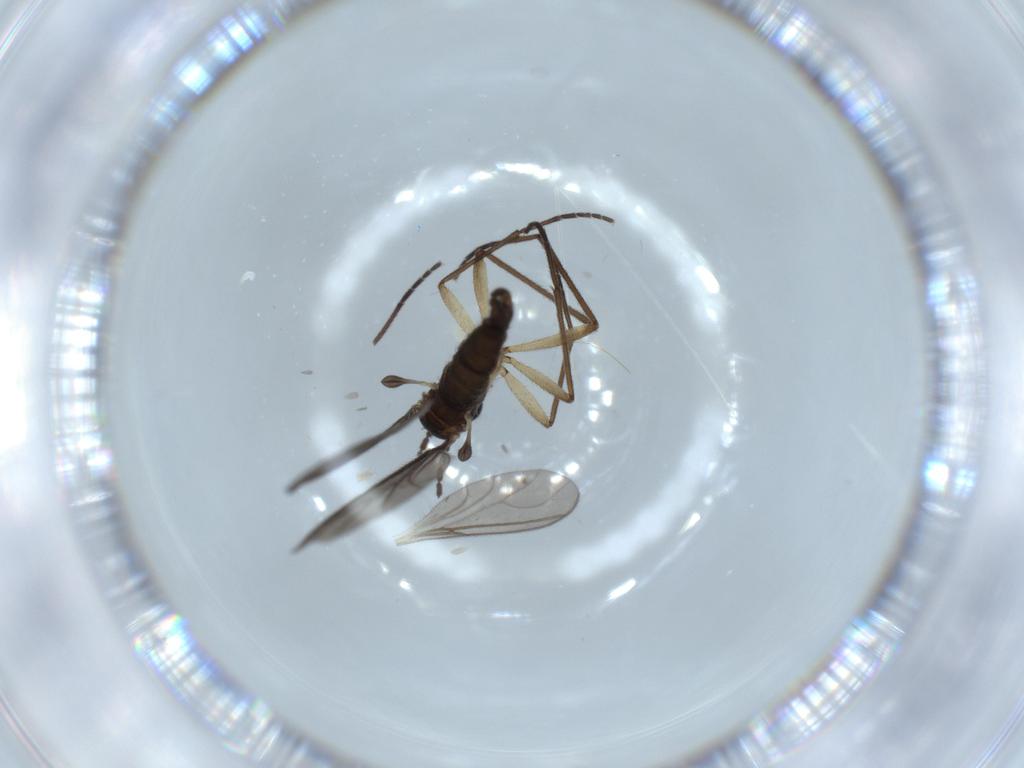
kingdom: Animalia
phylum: Arthropoda
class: Insecta
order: Diptera
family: Cecidomyiidae
